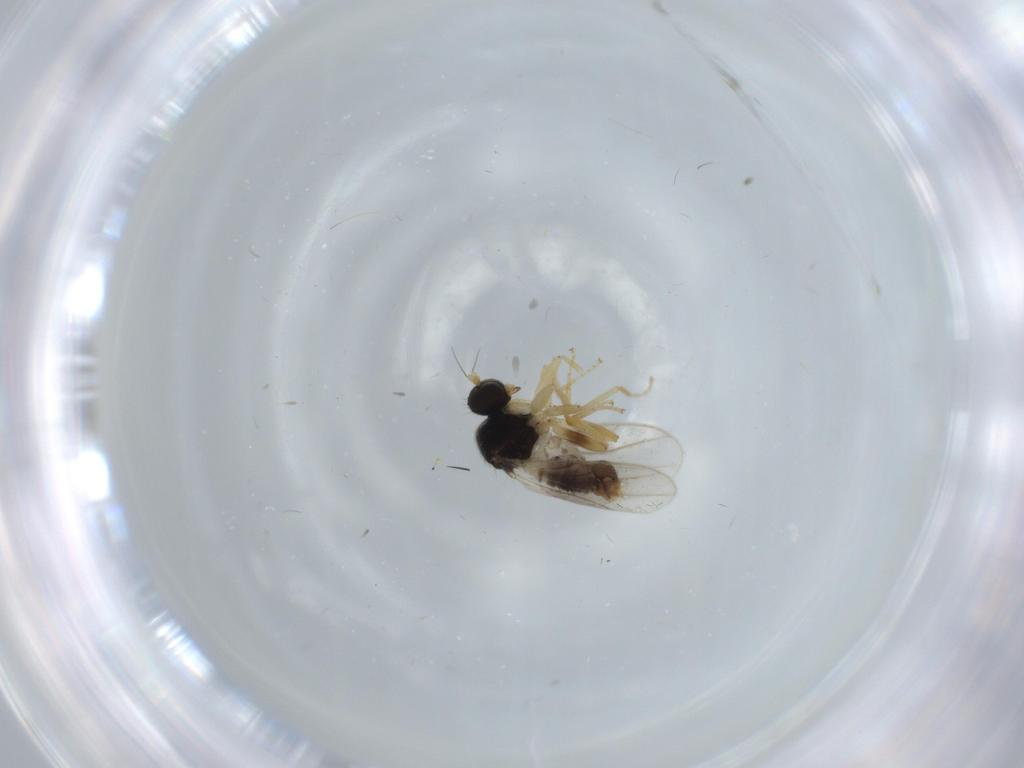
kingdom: Animalia
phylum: Arthropoda
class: Insecta
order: Diptera
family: Hybotidae
